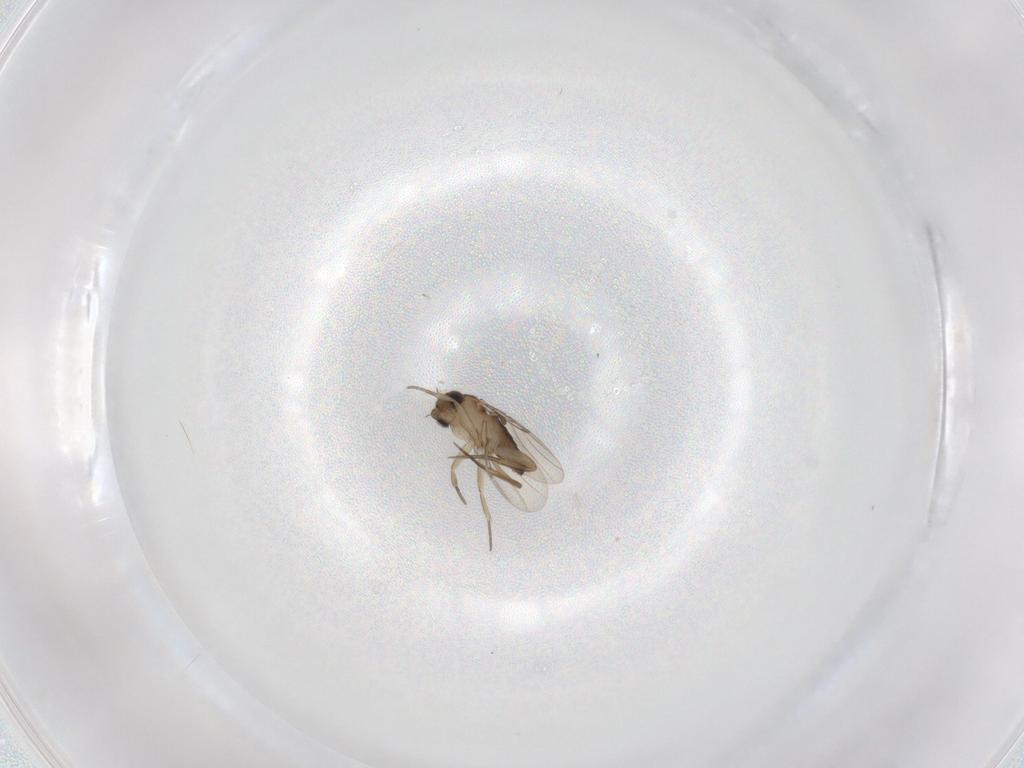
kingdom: Animalia
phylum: Arthropoda
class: Insecta
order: Diptera
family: Phoridae
